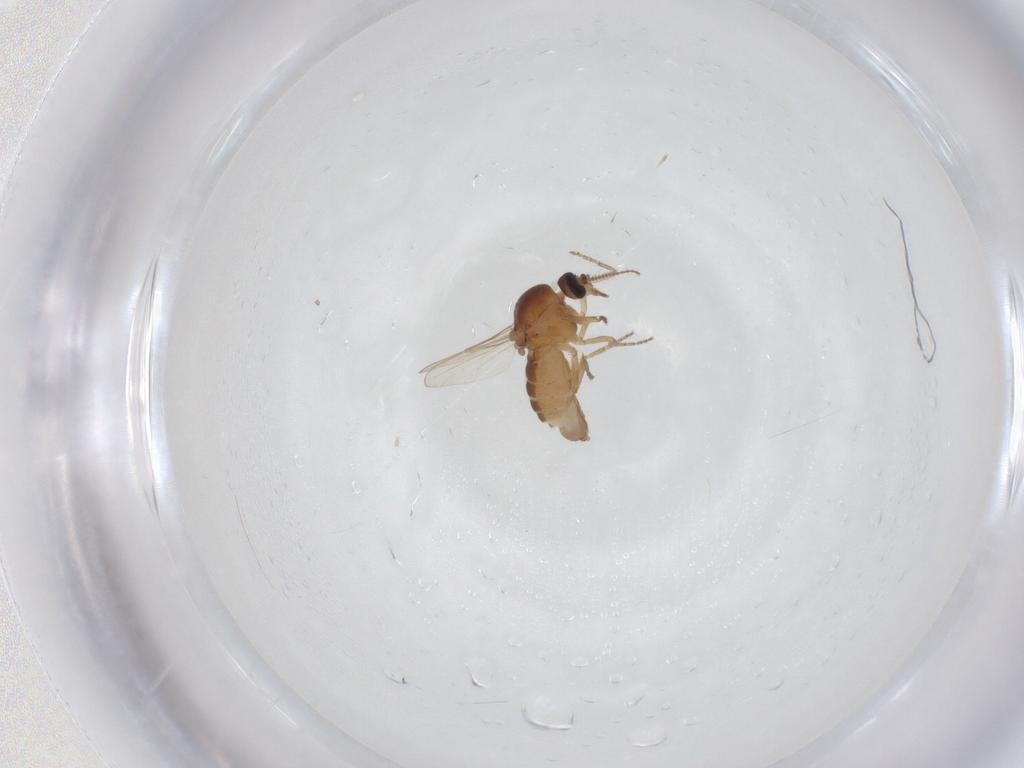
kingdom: Animalia
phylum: Arthropoda
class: Insecta
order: Diptera
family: Ceratopogonidae
